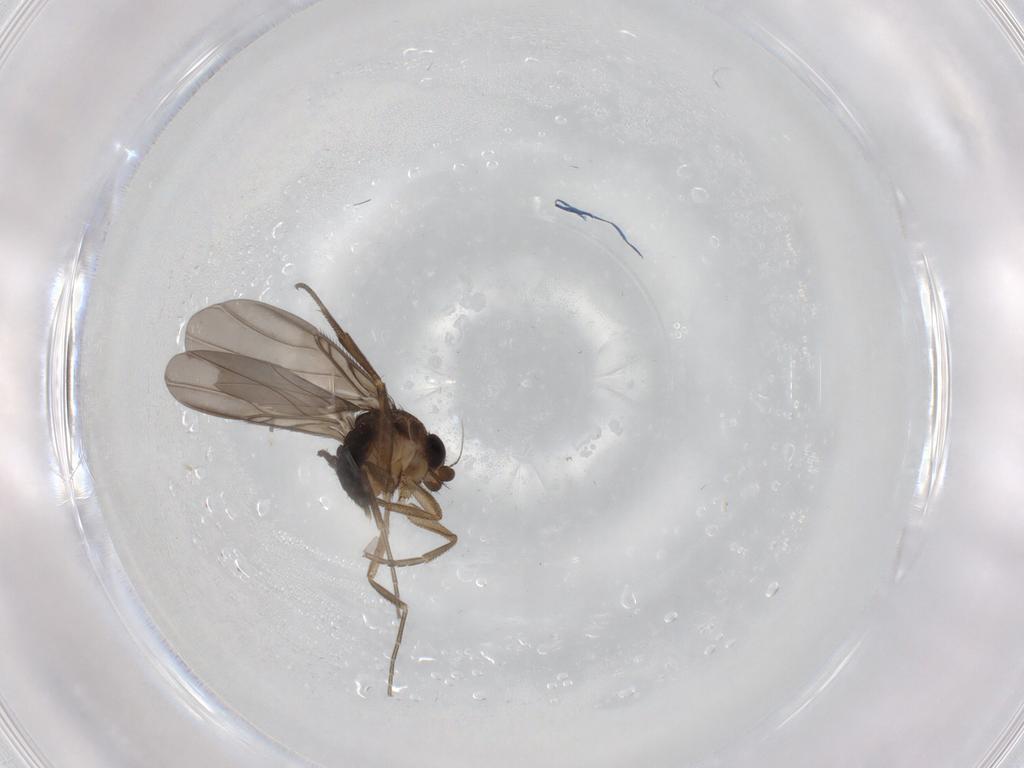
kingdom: Animalia
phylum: Arthropoda
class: Insecta
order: Diptera
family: Phoridae
